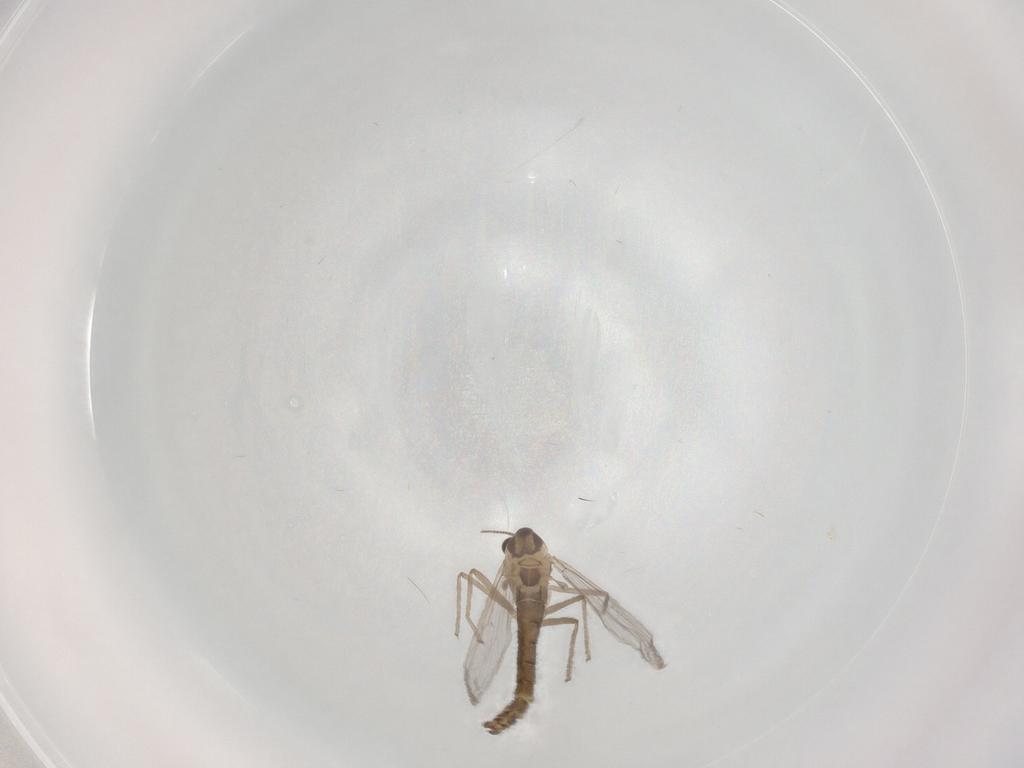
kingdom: Animalia
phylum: Arthropoda
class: Insecta
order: Diptera
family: Chironomidae
